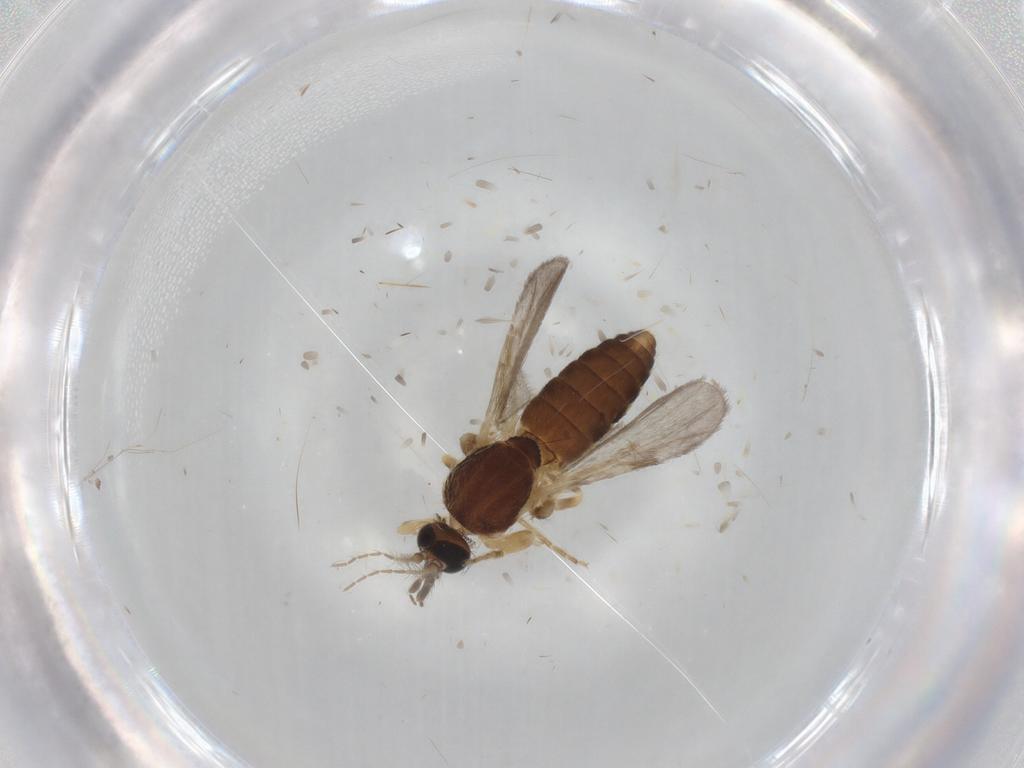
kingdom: Animalia
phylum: Arthropoda
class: Insecta
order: Diptera
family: Ceratopogonidae
